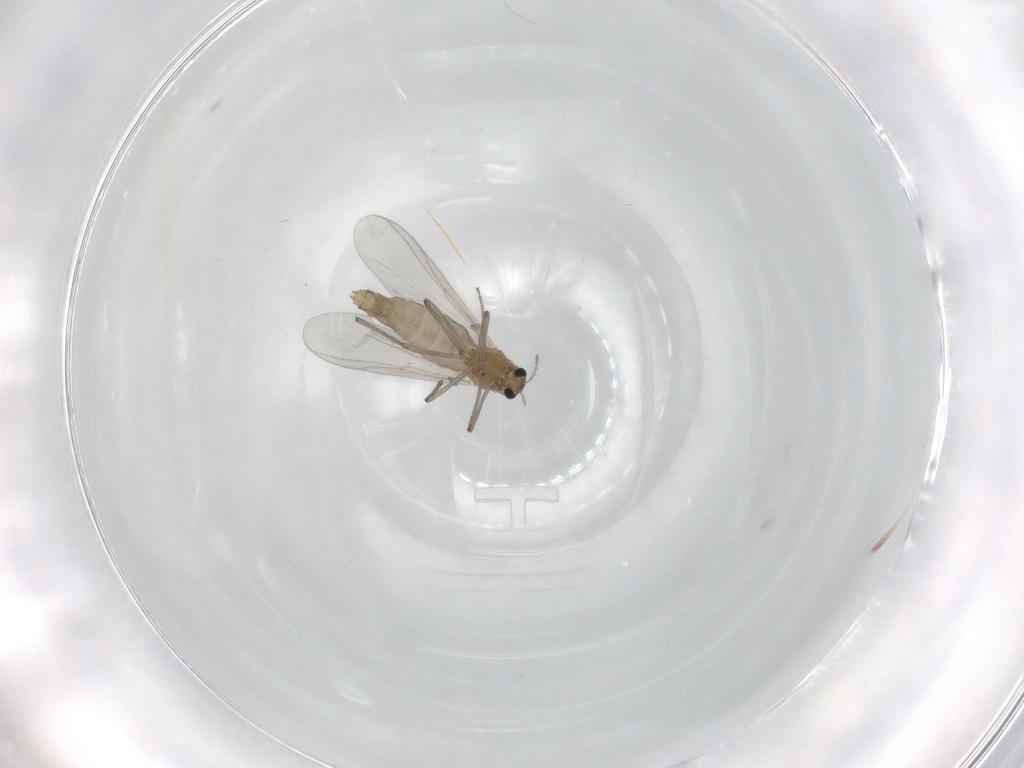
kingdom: Animalia
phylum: Arthropoda
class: Insecta
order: Diptera
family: Chironomidae
